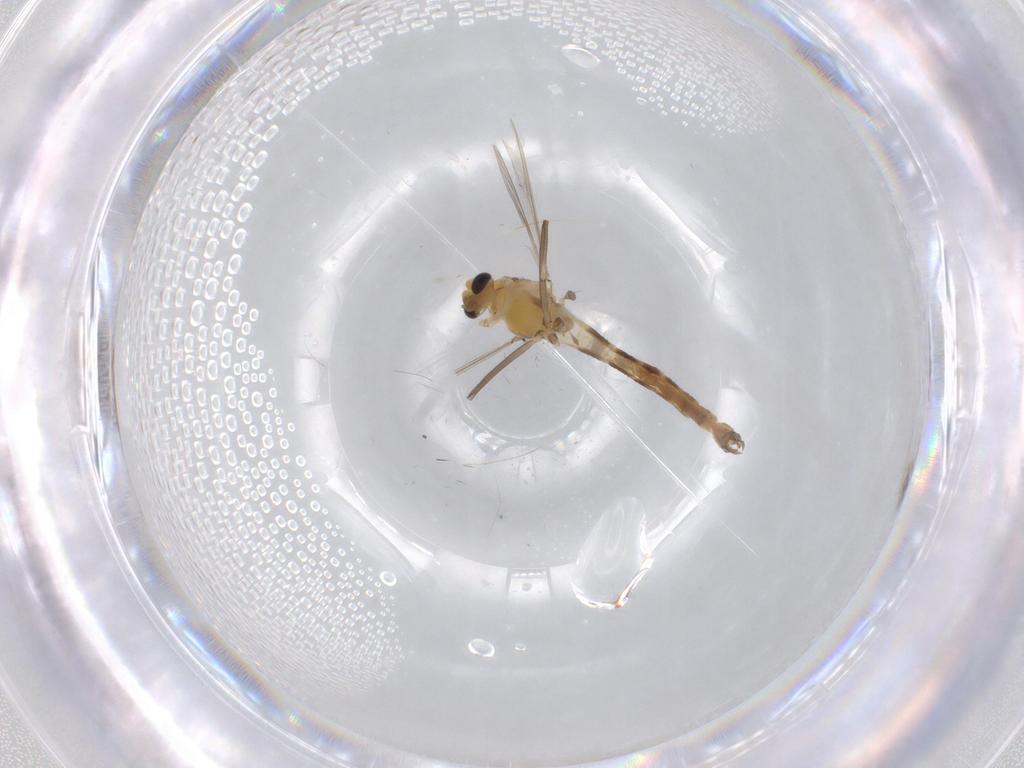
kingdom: Animalia
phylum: Arthropoda
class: Insecta
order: Diptera
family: Chironomidae
